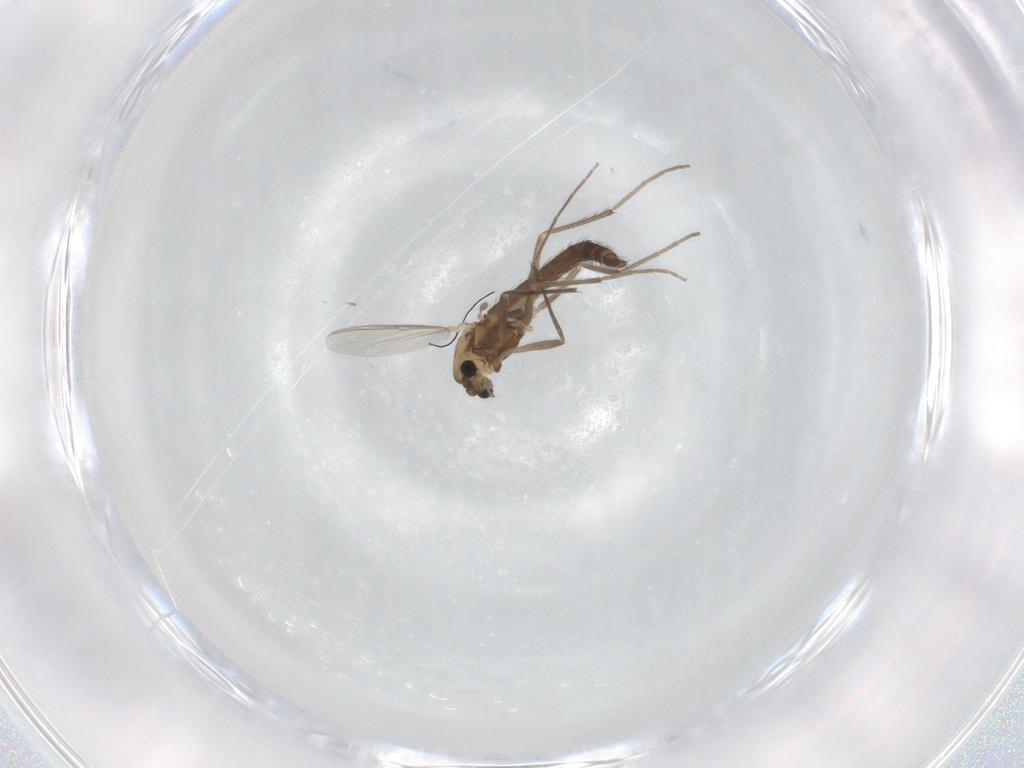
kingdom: Animalia
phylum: Arthropoda
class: Insecta
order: Diptera
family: Chironomidae
